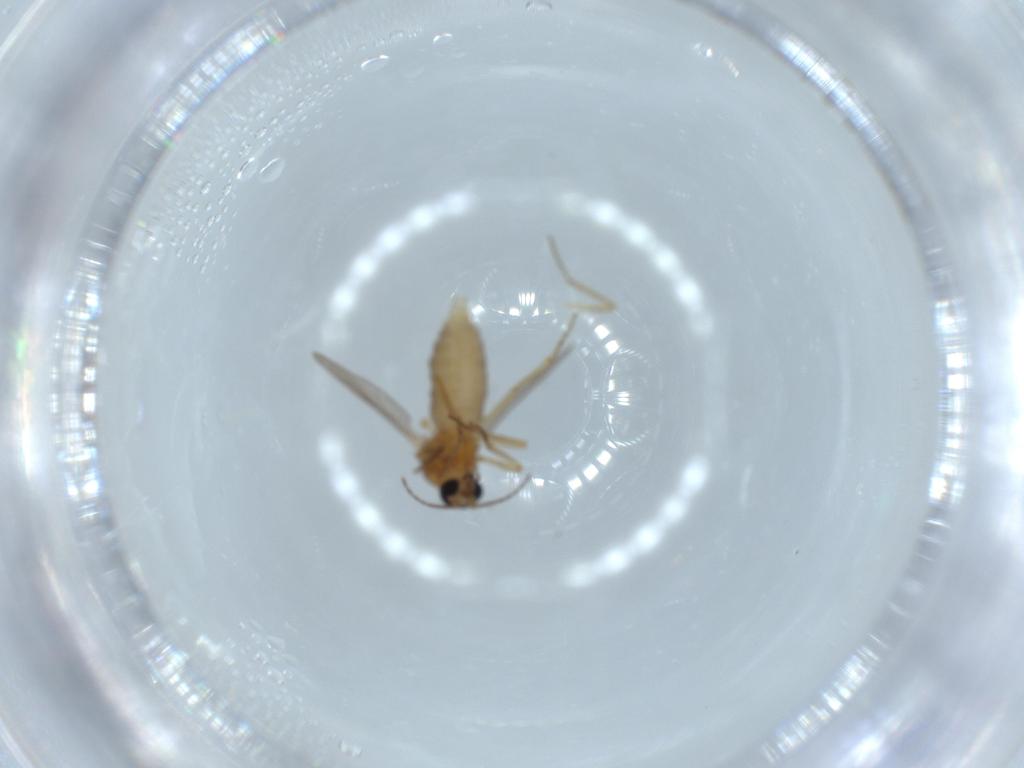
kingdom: Animalia
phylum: Arthropoda
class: Insecta
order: Diptera
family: Ceratopogonidae
